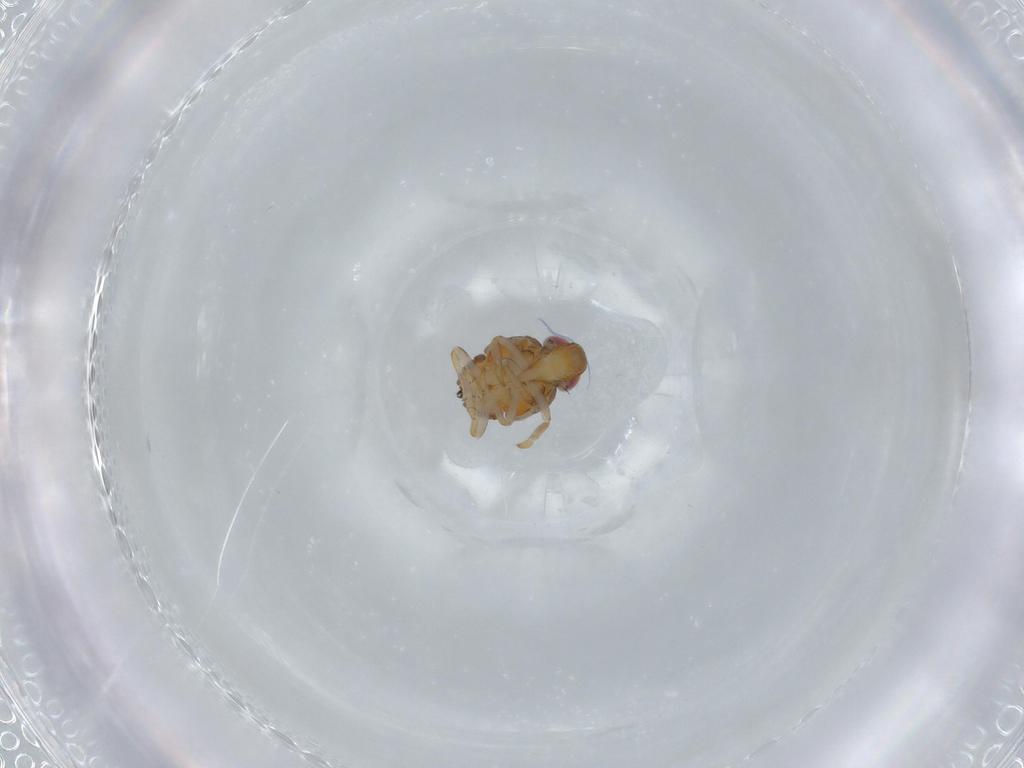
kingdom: Animalia
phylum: Arthropoda
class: Insecta
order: Hemiptera
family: Issidae
